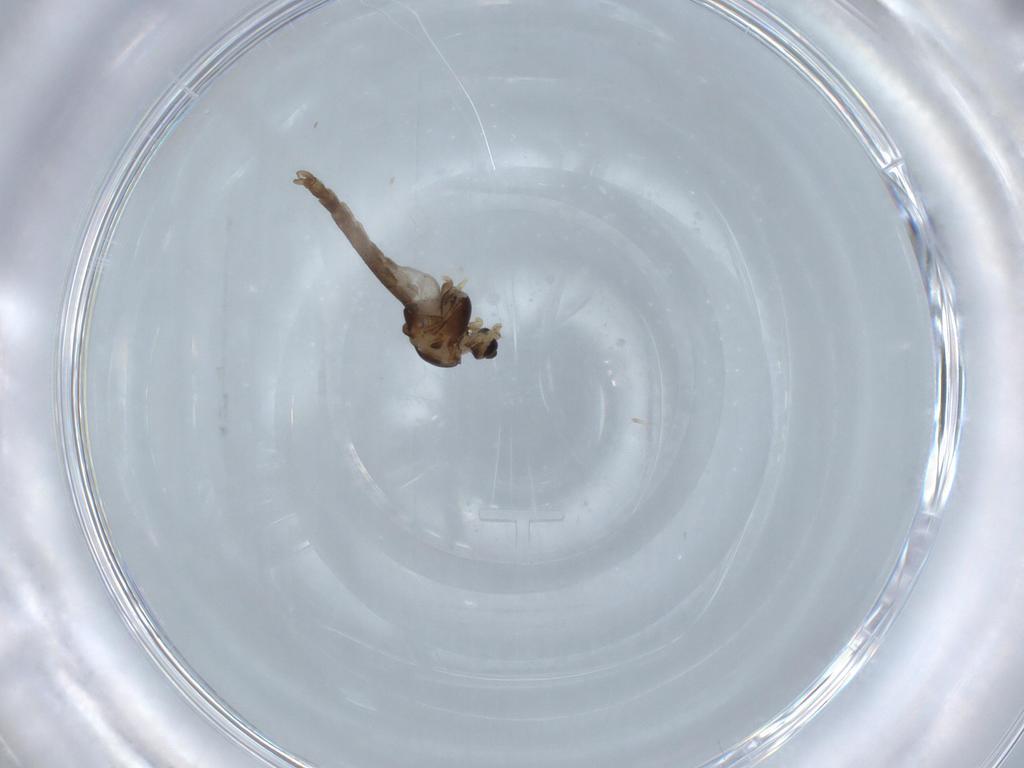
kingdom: Animalia
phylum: Arthropoda
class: Insecta
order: Diptera
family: Chironomidae
